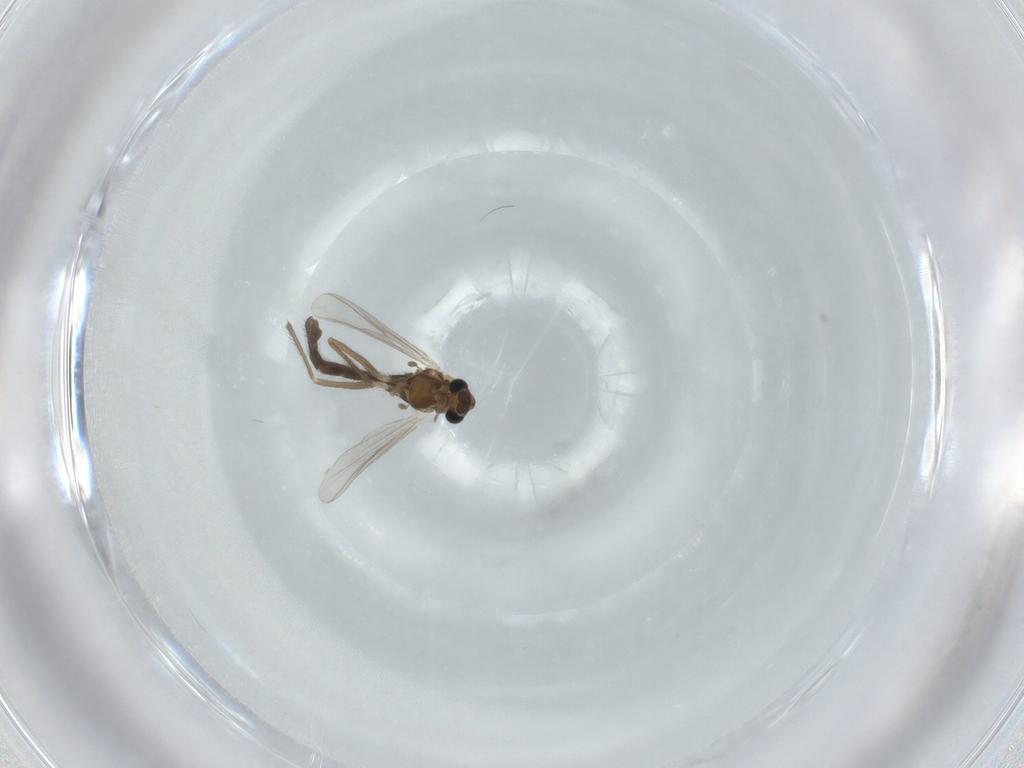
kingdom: Animalia
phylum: Arthropoda
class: Insecta
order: Diptera
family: Chironomidae
